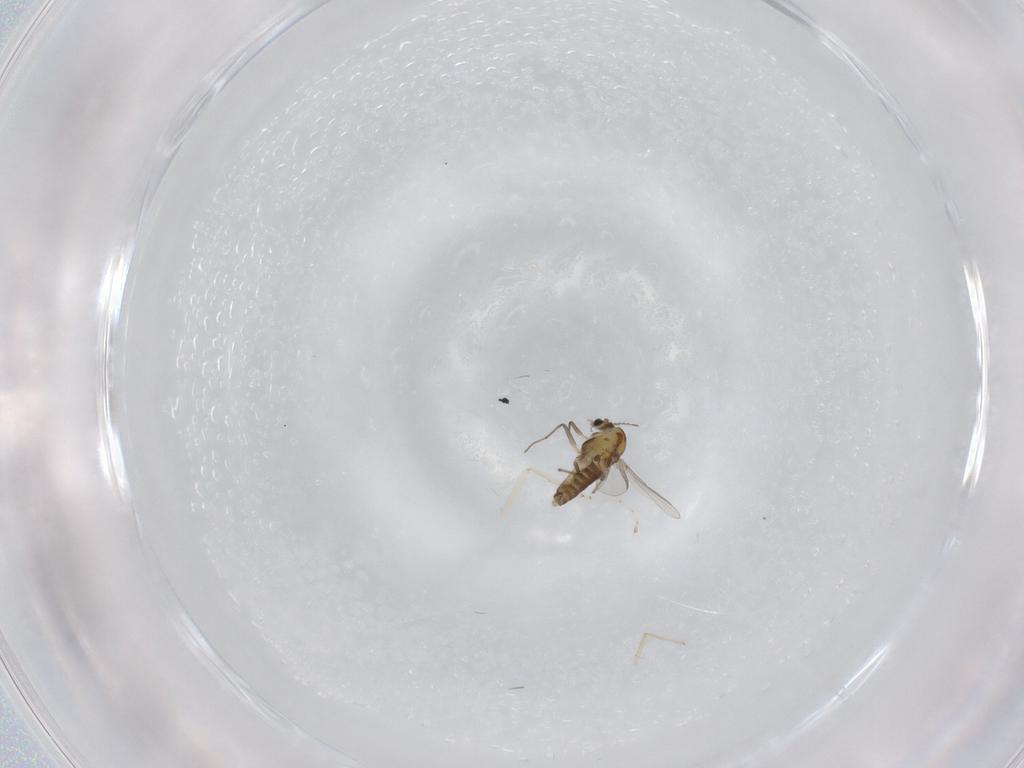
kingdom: Animalia
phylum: Arthropoda
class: Insecta
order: Diptera
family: Chironomidae
